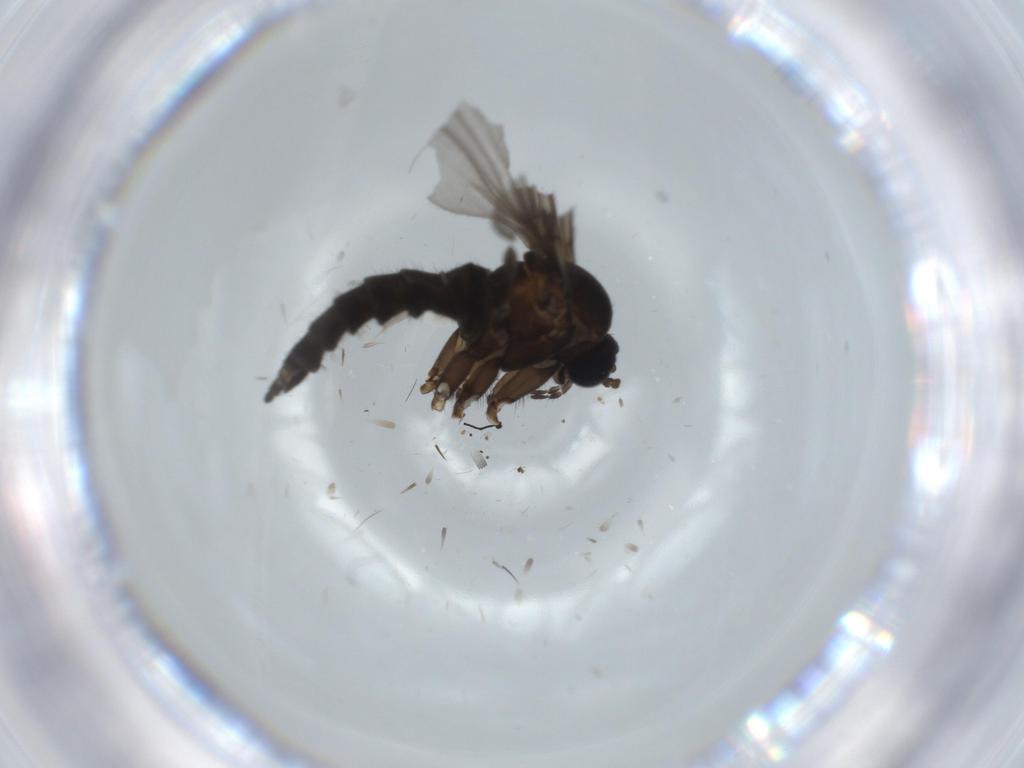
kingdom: Animalia
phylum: Arthropoda
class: Insecta
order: Diptera
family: Sciaridae
